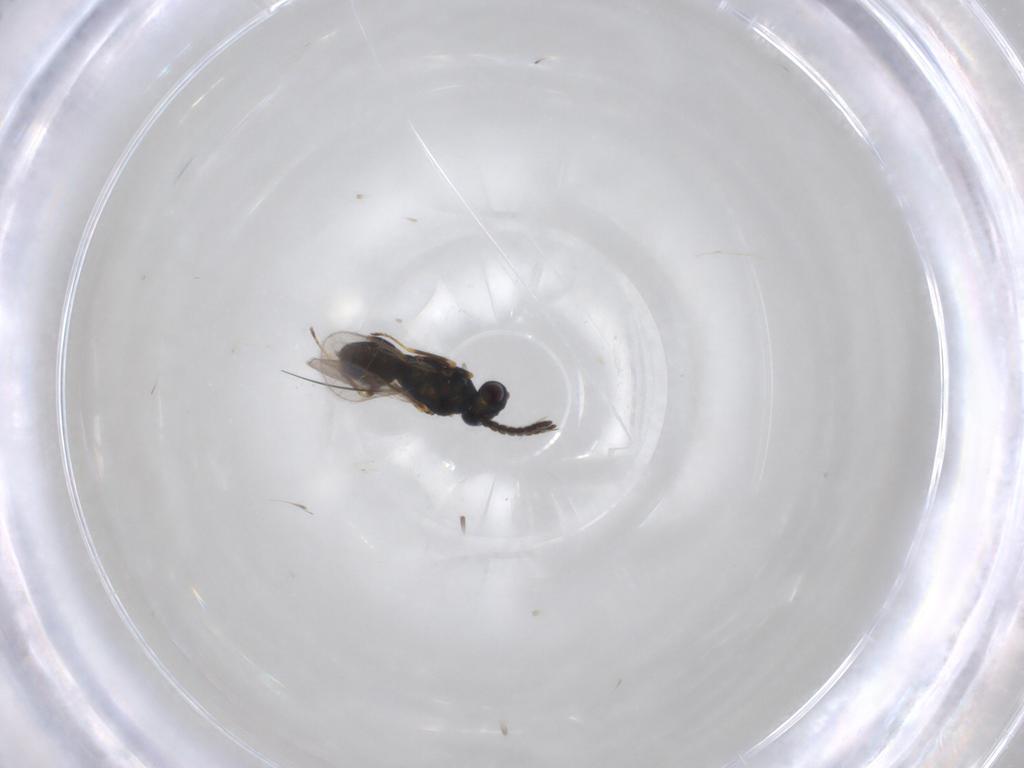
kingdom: Animalia
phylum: Arthropoda
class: Insecta
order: Hymenoptera
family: Pteromalidae
